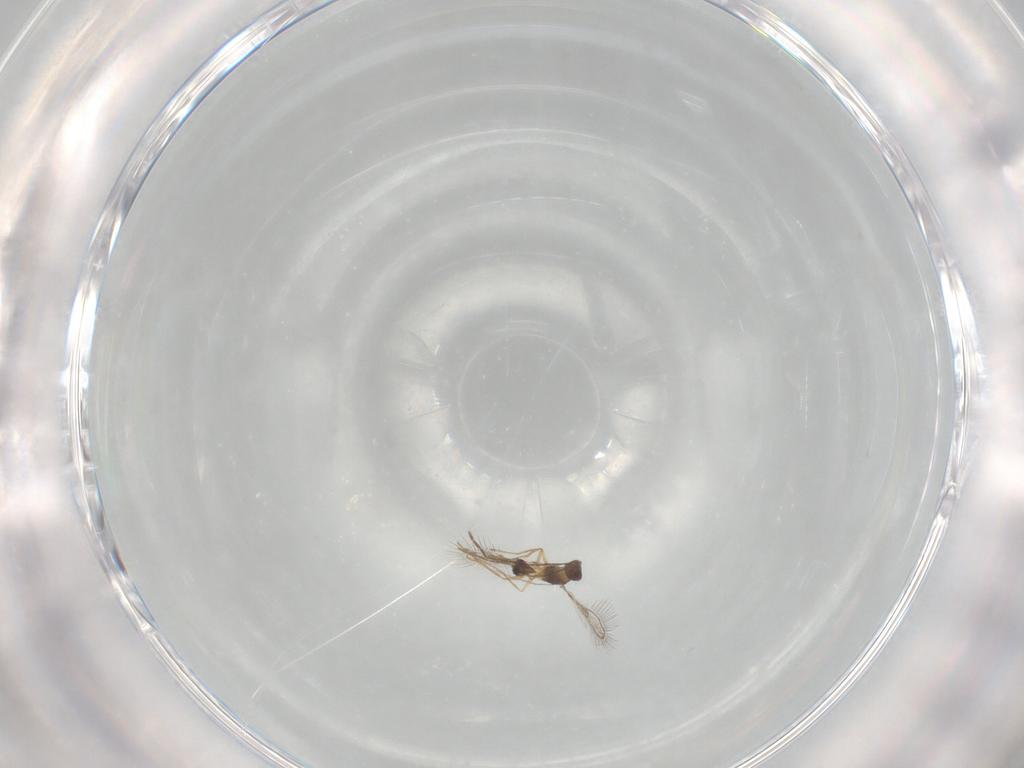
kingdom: Animalia
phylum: Arthropoda
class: Insecta
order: Hymenoptera
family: Mymaridae
